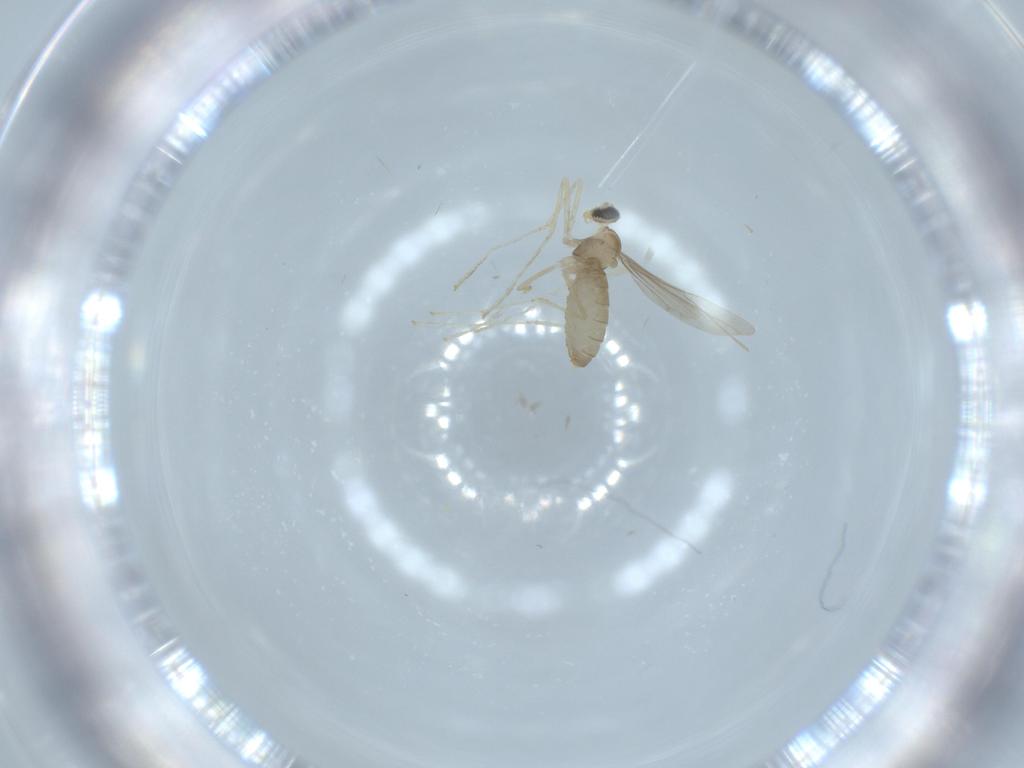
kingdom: Animalia
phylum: Arthropoda
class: Insecta
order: Diptera
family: Cecidomyiidae
